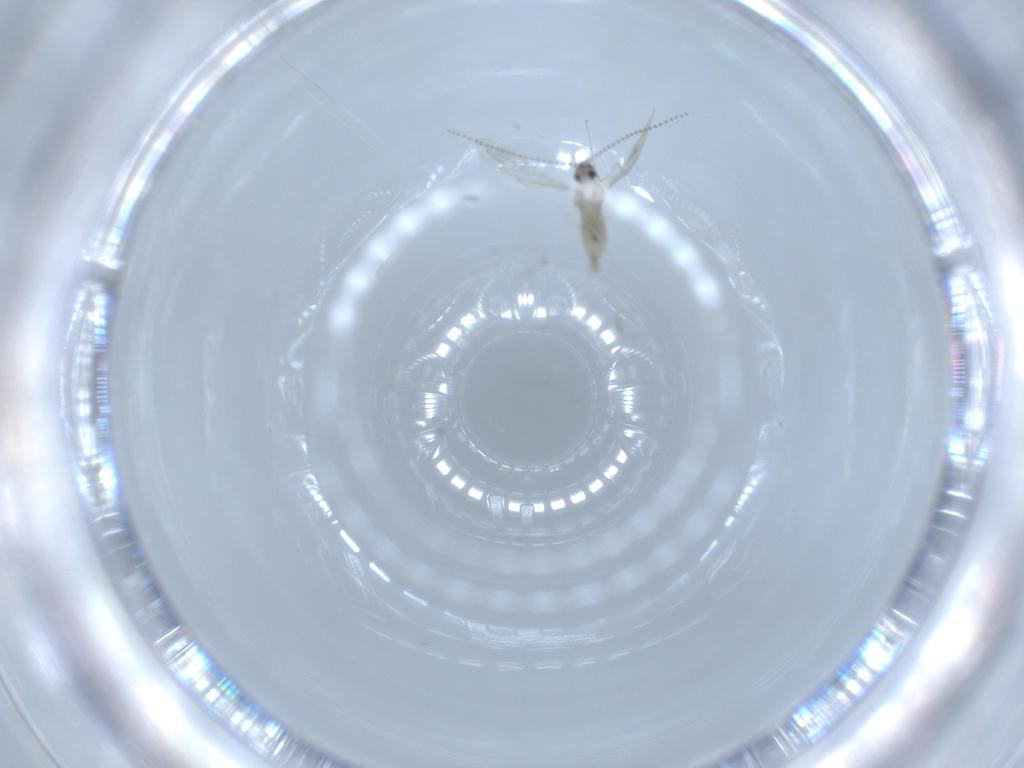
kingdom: Animalia
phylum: Arthropoda
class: Insecta
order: Diptera
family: Cecidomyiidae
